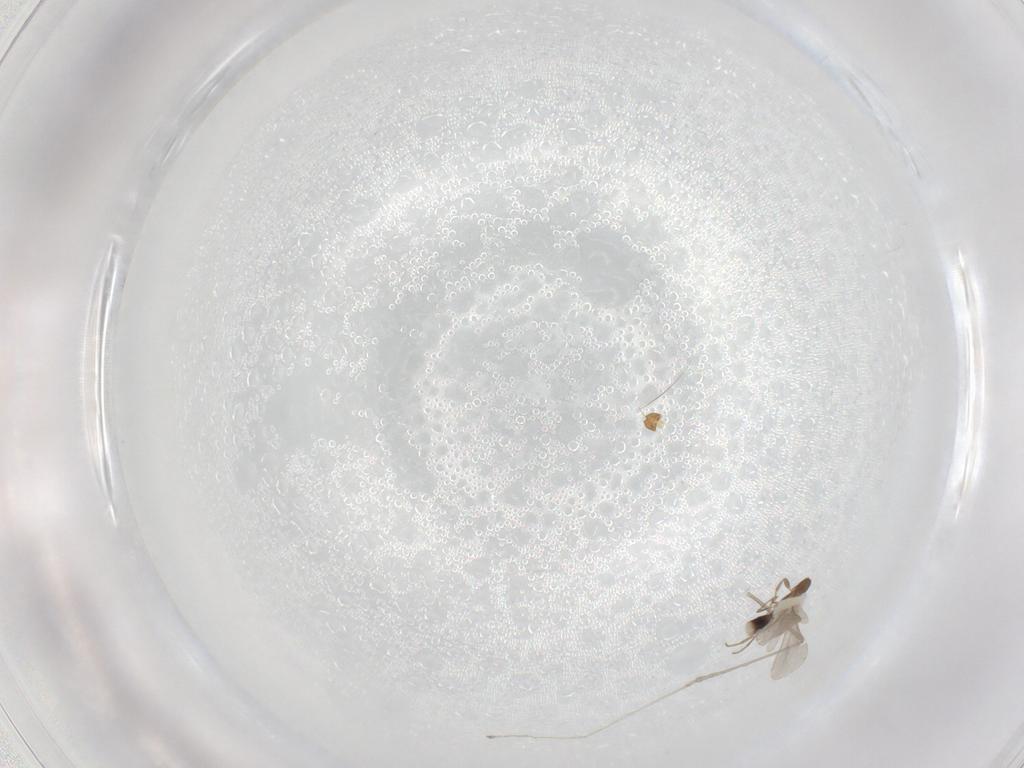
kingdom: Animalia
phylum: Arthropoda
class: Insecta
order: Hymenoptera
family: Formicidae
